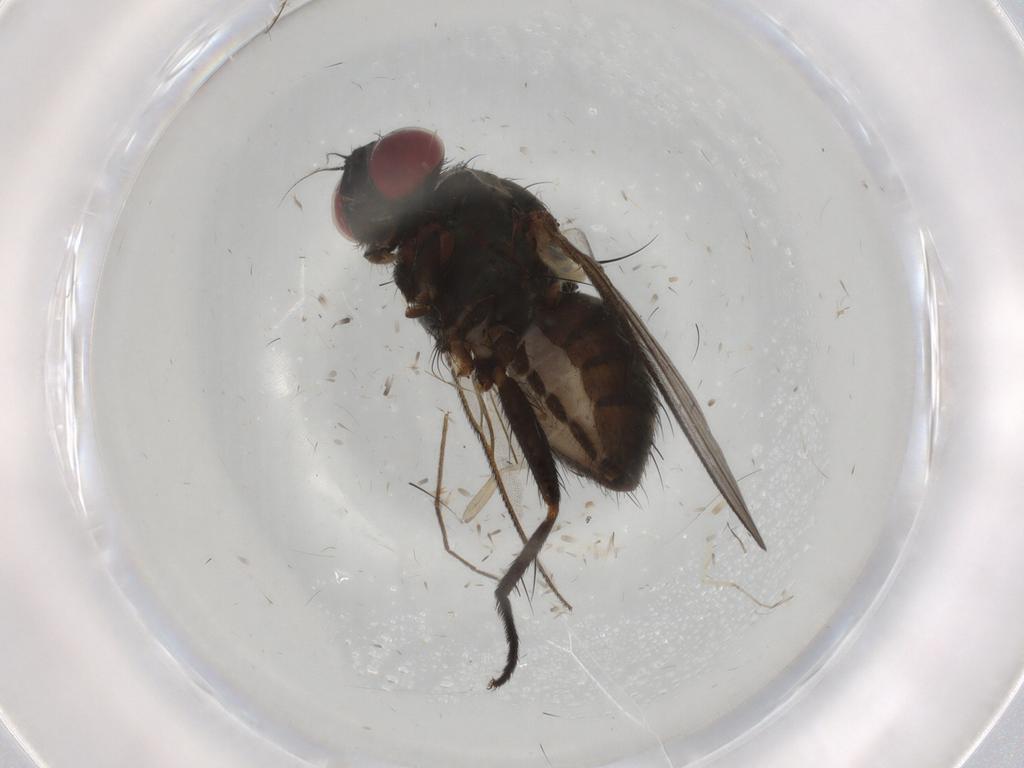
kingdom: Animalia
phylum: Arthropoda
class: Insecta
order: Diptera
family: Muscidae
